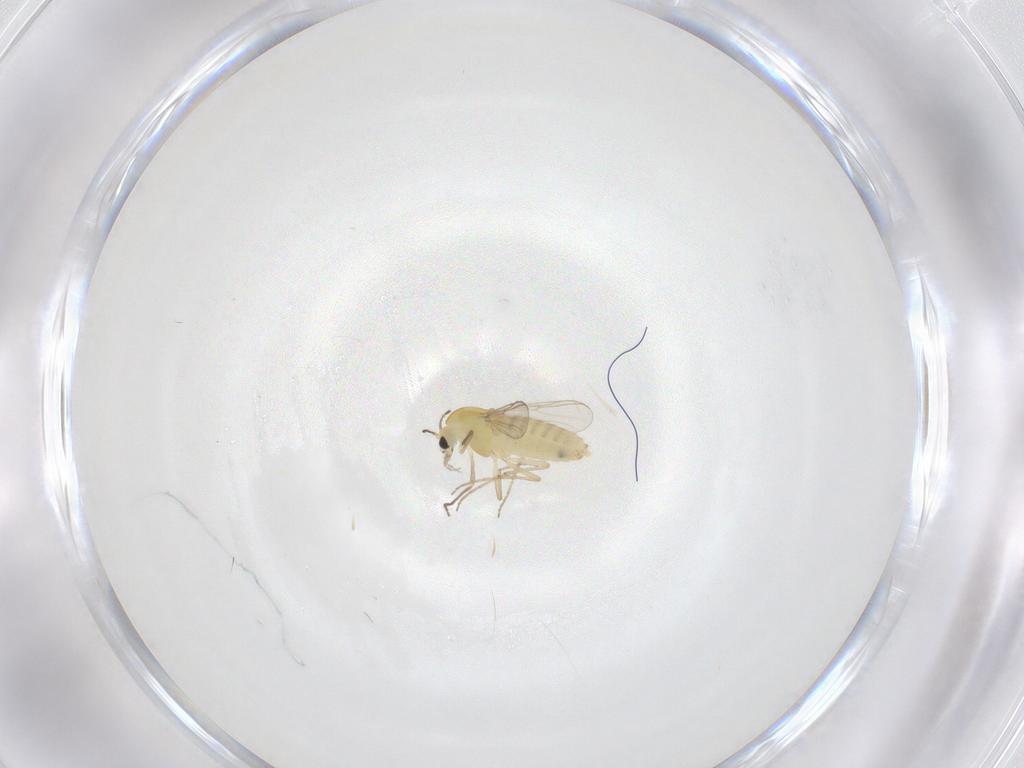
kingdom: Animalia
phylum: Arthropoda
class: Insecta
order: Diptera
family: Chironomidae
